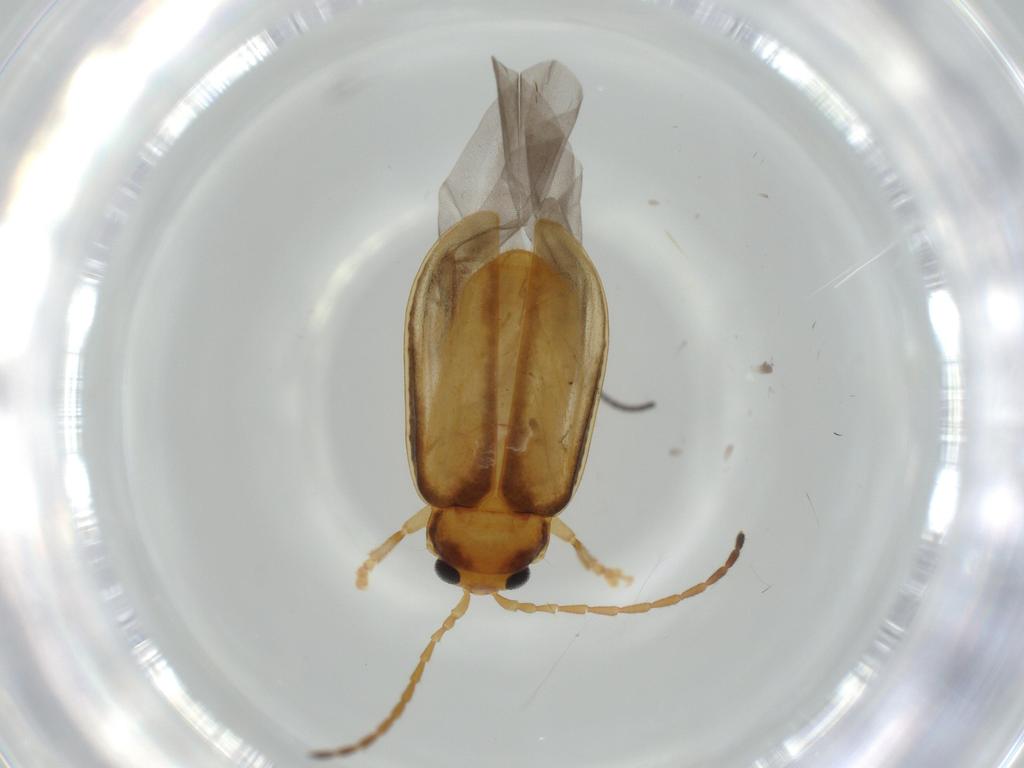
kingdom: Animalia
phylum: Arthropoda
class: Insecta
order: Coleoptera
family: Chrysomelidae
